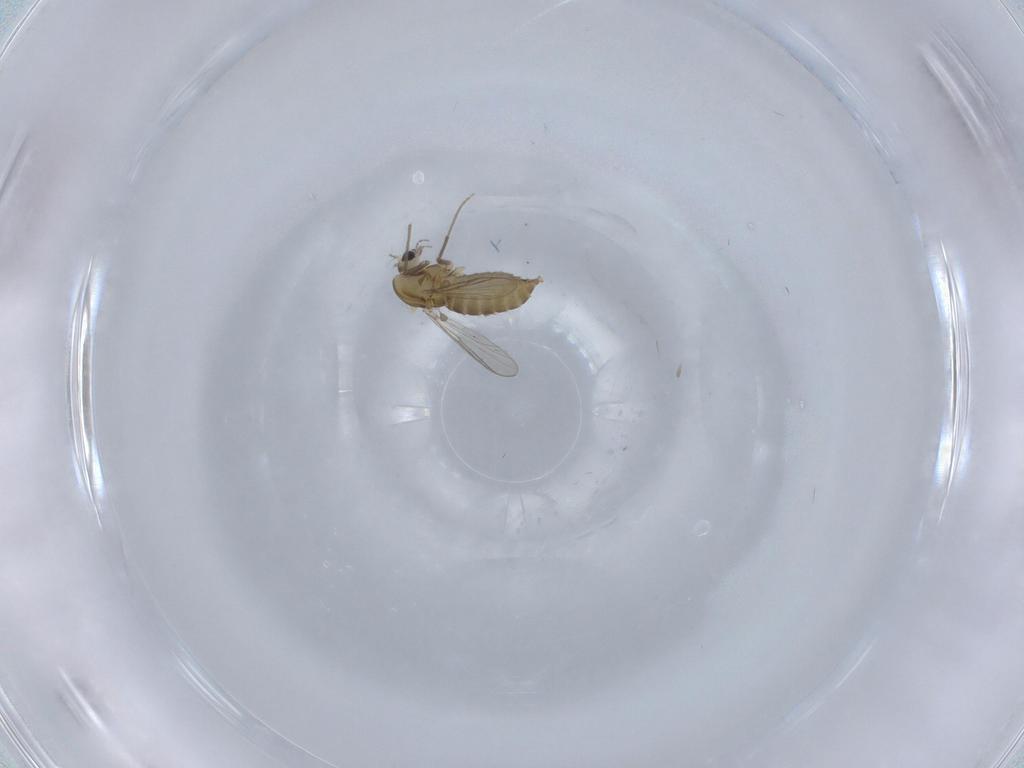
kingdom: Animalia
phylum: Arthropoda
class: Insecta
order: Diptera
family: Chironomidae
